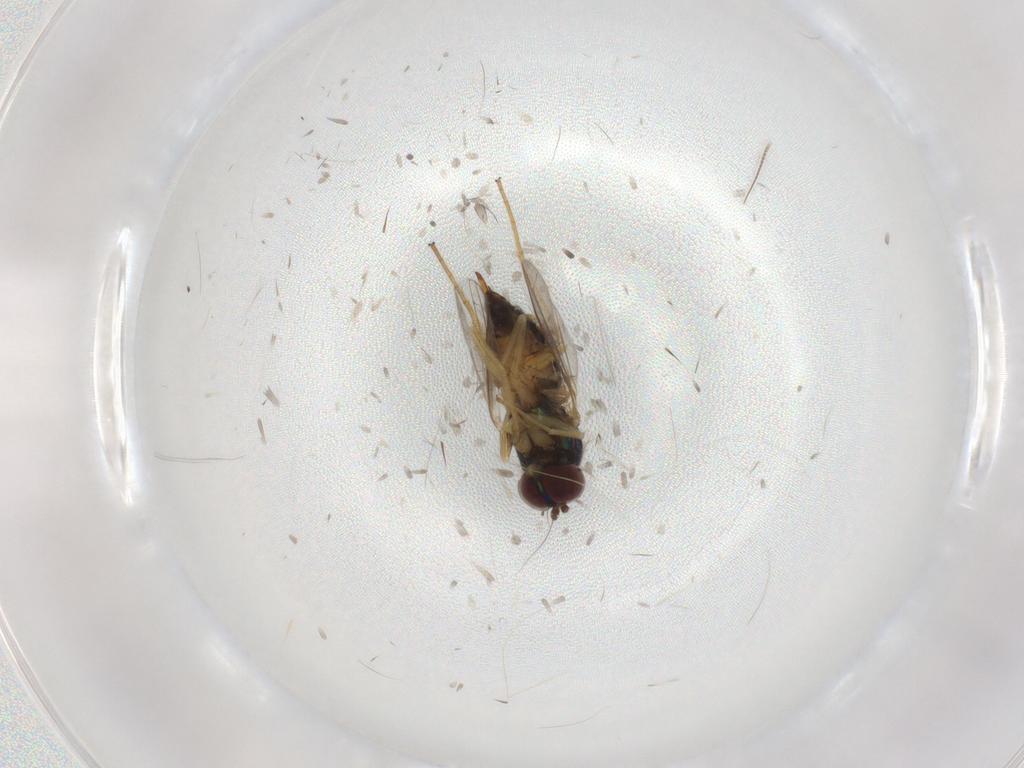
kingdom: Animalia
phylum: Arthropoda
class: Insecta
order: Diptera
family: Dolichopodidae
